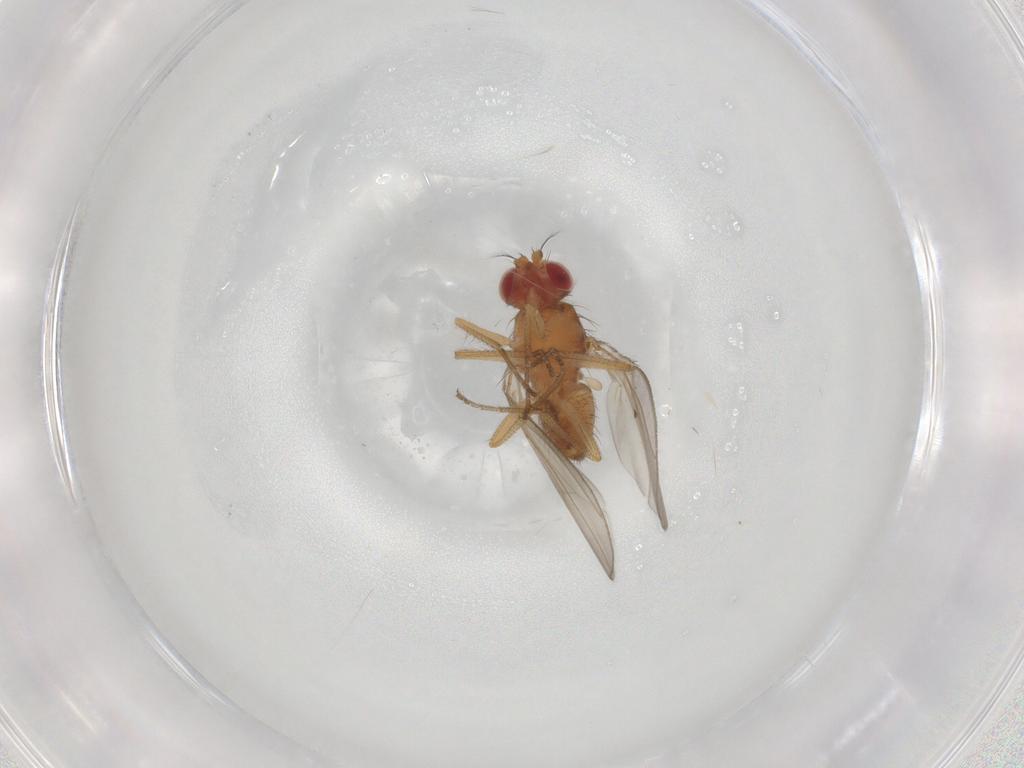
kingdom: Animalia
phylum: Arthropoda
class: Insecta
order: Diptera
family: Drosophilidae
